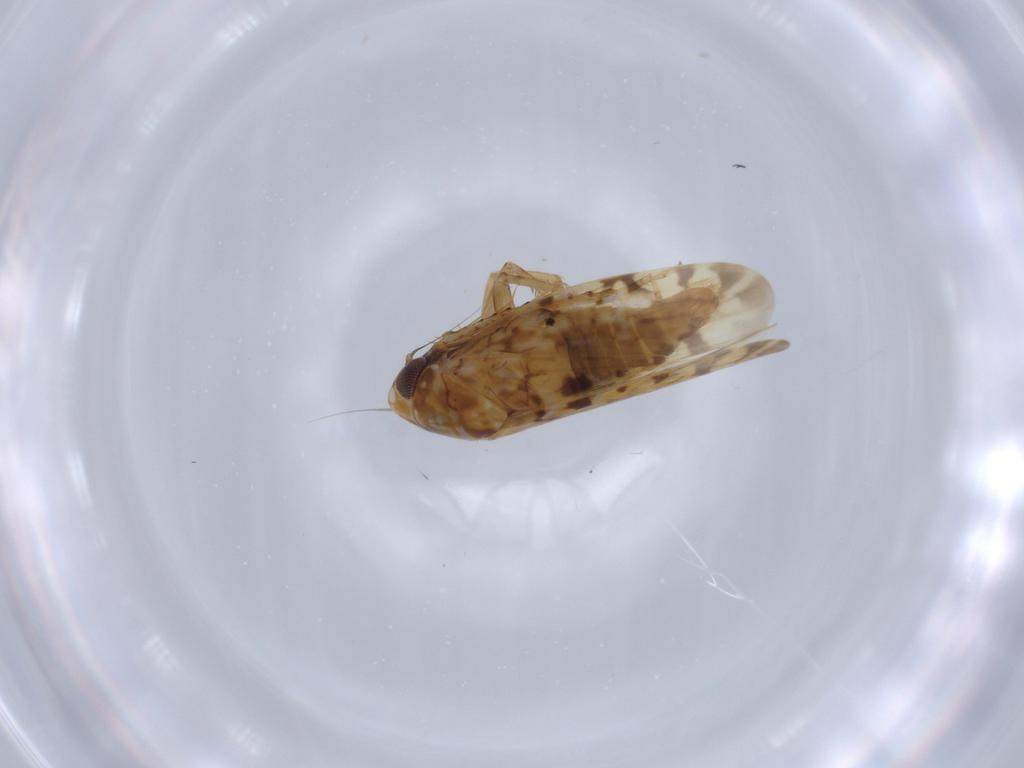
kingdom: Animalia
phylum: Arthropoda
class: Insecta
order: Hemiptera
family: Cicadellidae
